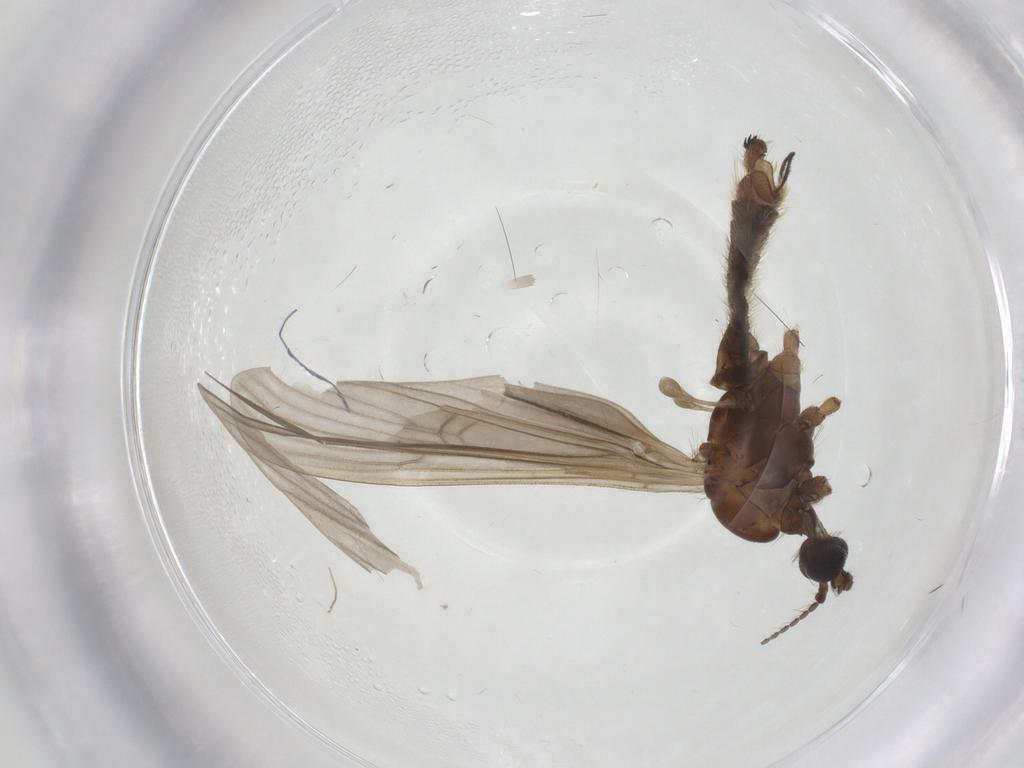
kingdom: Animalia
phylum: Arthropoda
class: Insecta
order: Diptera
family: Limoniidae
